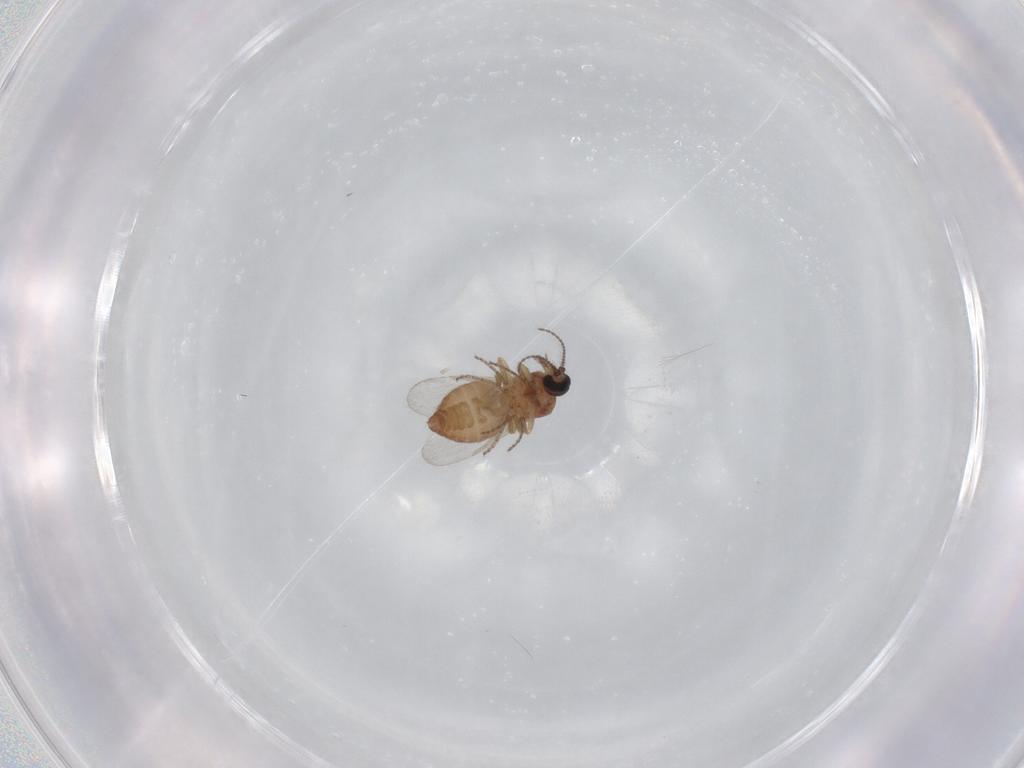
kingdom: Animalia
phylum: Arthropoda
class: Insecta
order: Diptera
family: Ceratopogonidae
